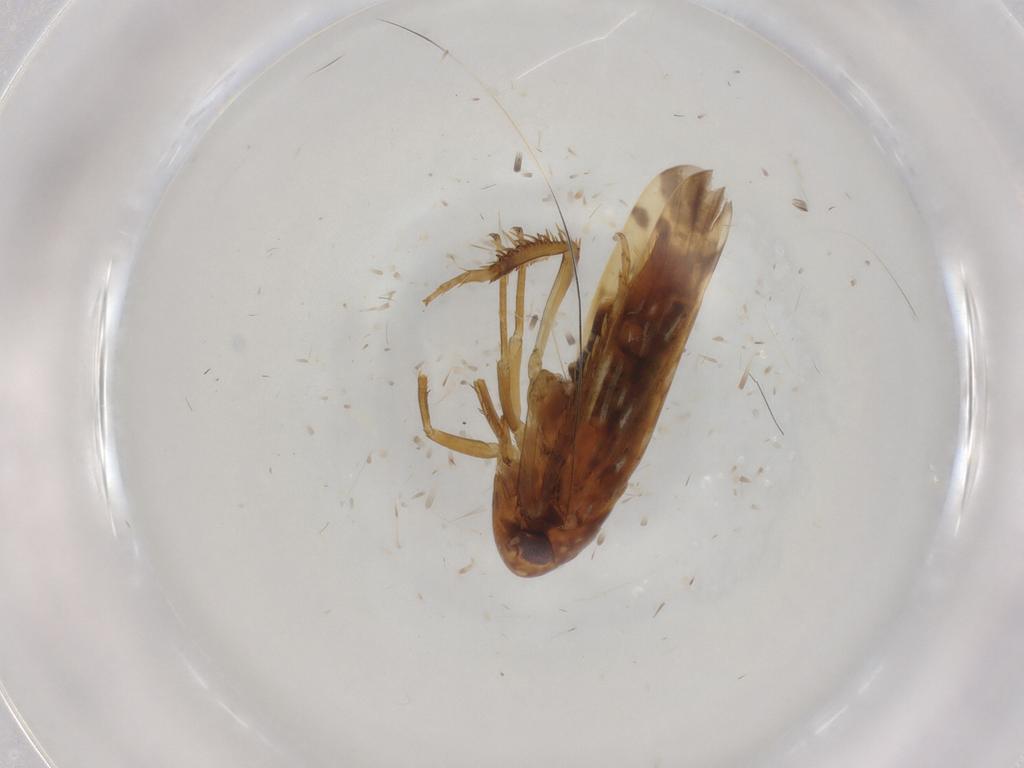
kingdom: Animalia
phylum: Arthropoda
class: Insecta
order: Hemiptera
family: Cicadellidae
